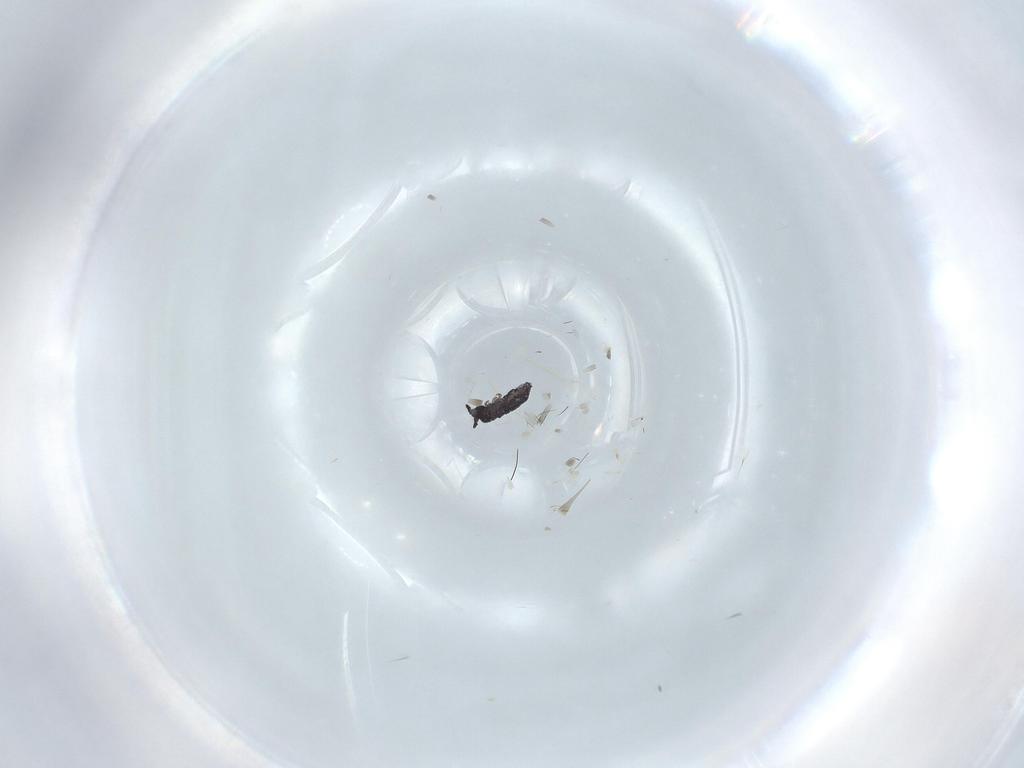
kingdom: Animalia
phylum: Arthropoda
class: Collembola
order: Poduromorpha
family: Hypogastruridae
